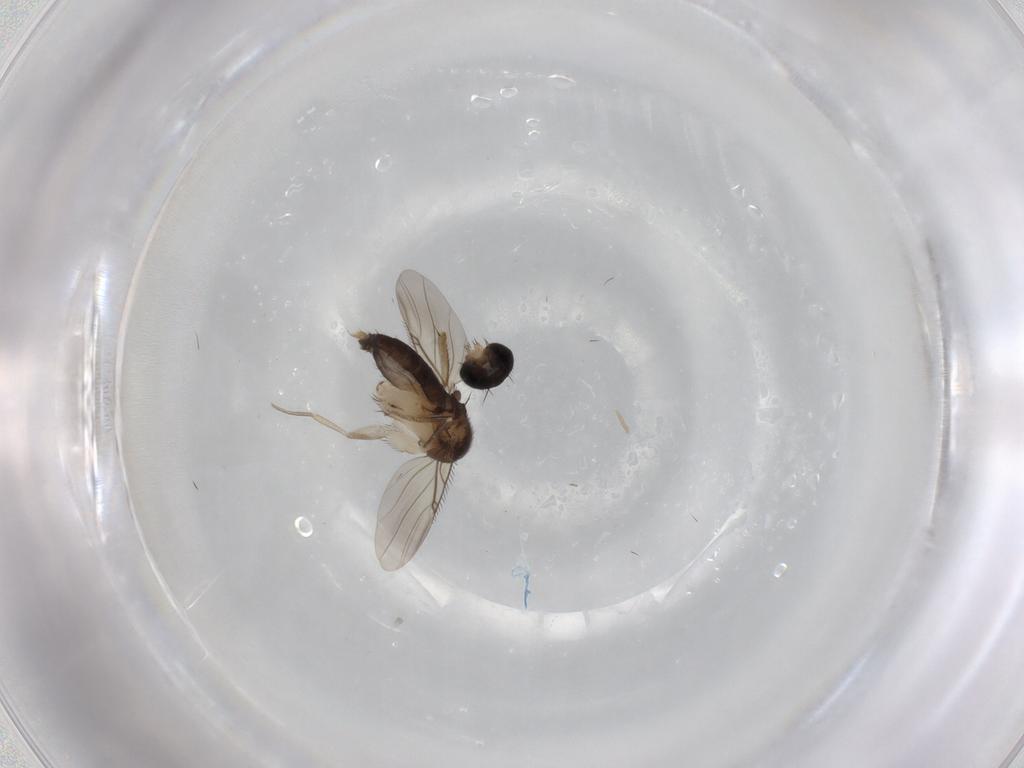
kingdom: Animalia
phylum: Arthropoda
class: Insecta
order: Diptera
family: Phoridae
